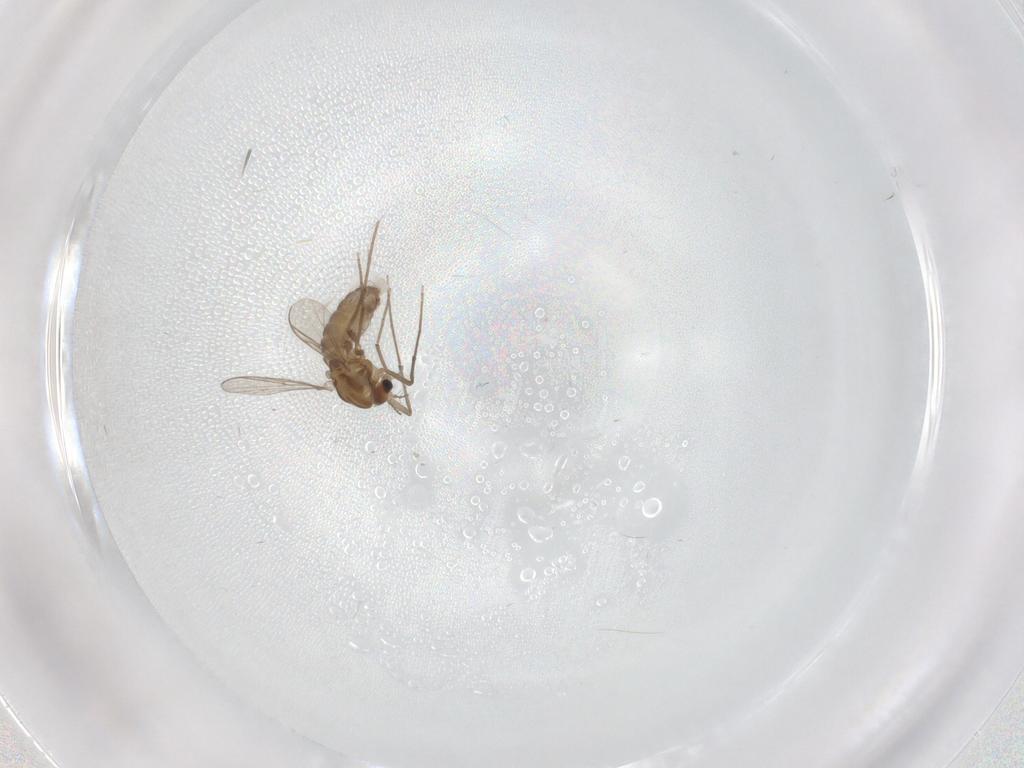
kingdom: Animalia
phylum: Arthropoda
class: Insecta
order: Diptera
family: Chironomidae
